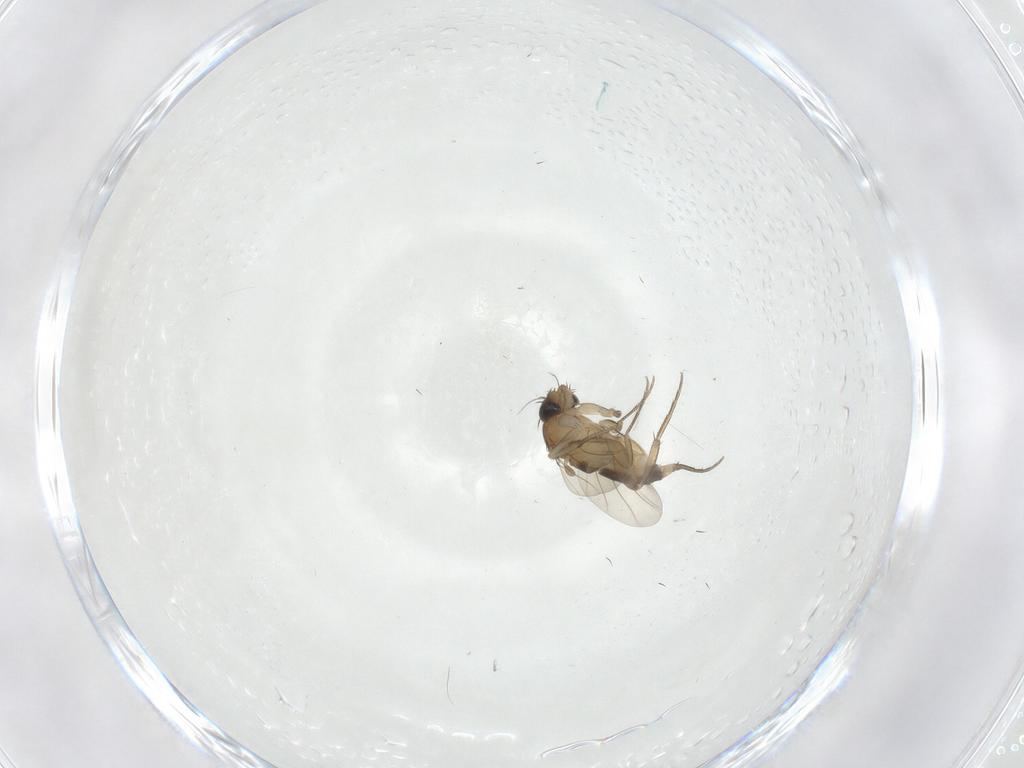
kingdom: Animalia
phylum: Arthropoda
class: Insecta
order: Diptera
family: Phoridae
